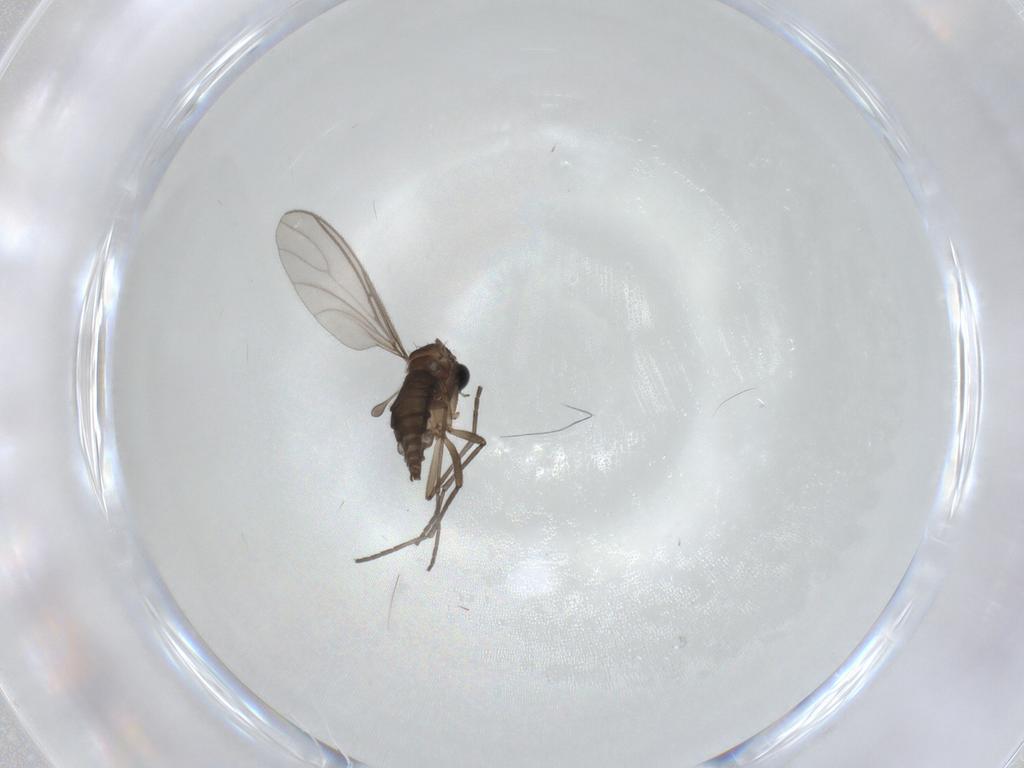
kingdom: Animalia
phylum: Arthropoda
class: Insecta
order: Diptera
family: Sciaridae
